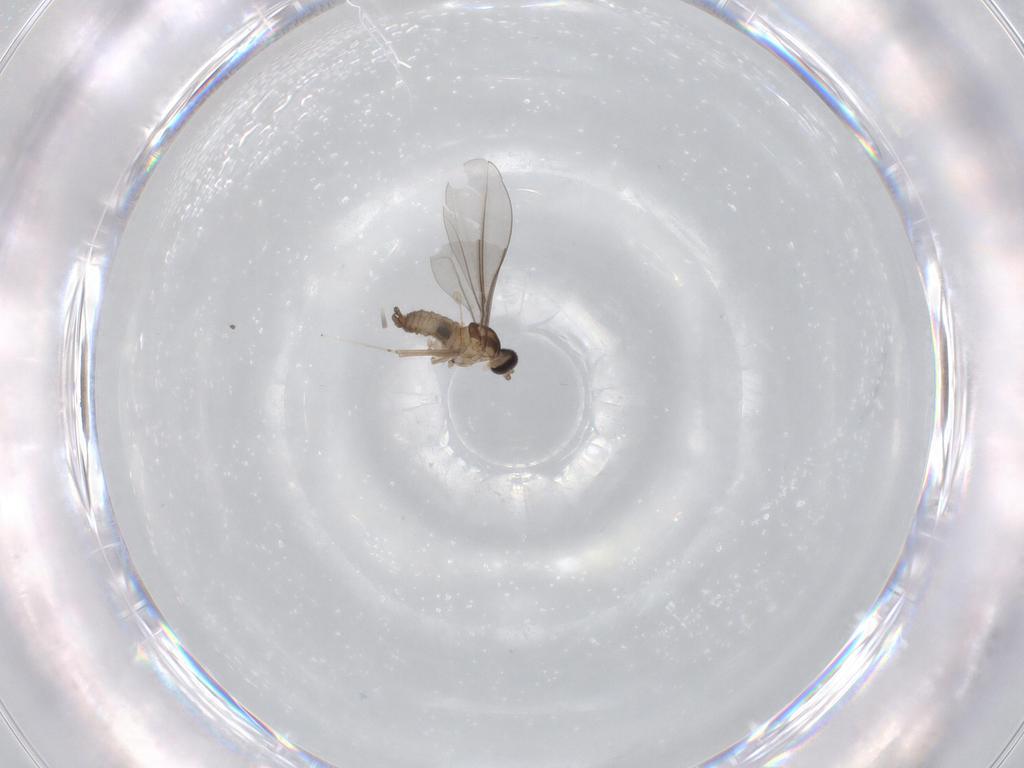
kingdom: Animalia
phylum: Arthropoda
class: Insecta
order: Diptera
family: Cecidomyiidae
